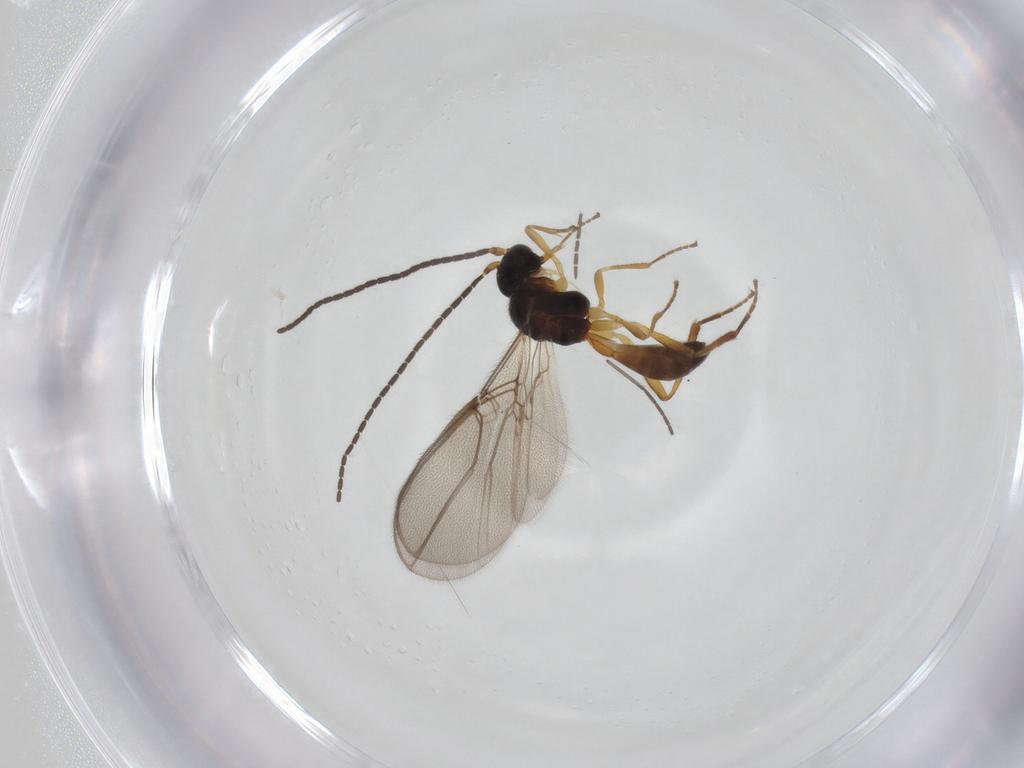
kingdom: Animalia
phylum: Arthropoda
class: Insecta
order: Hymenoptera
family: Braconidae
